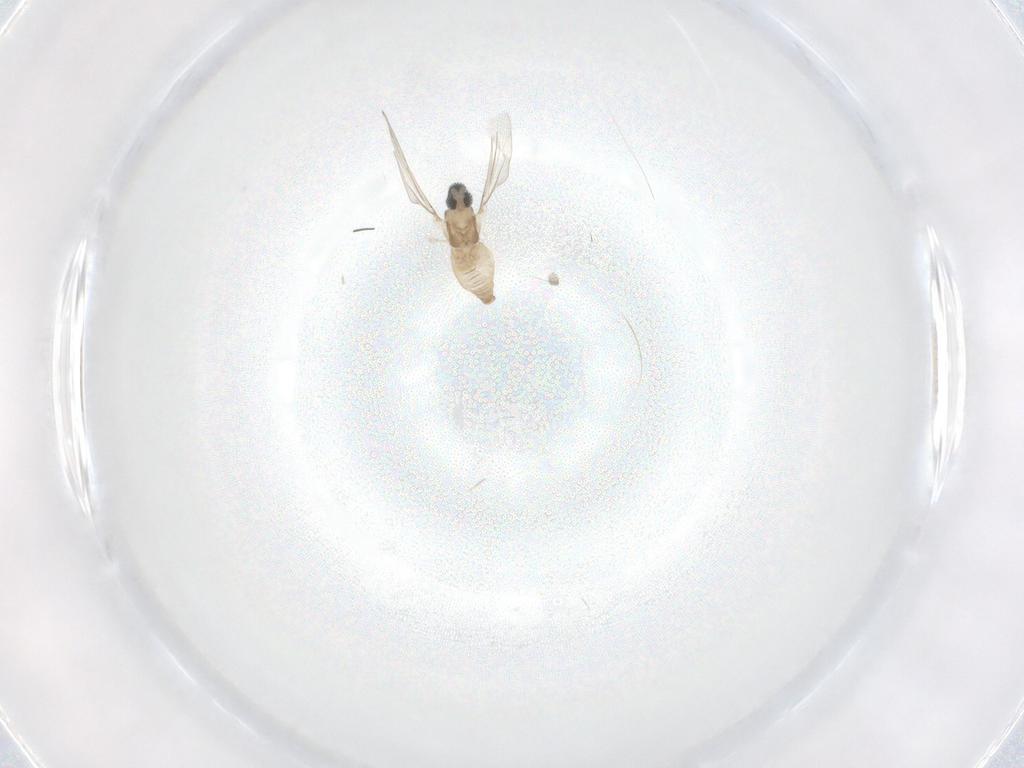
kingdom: Animalia
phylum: Arthropoda
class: Insecta
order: Diptera
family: Cecidomyiidae
